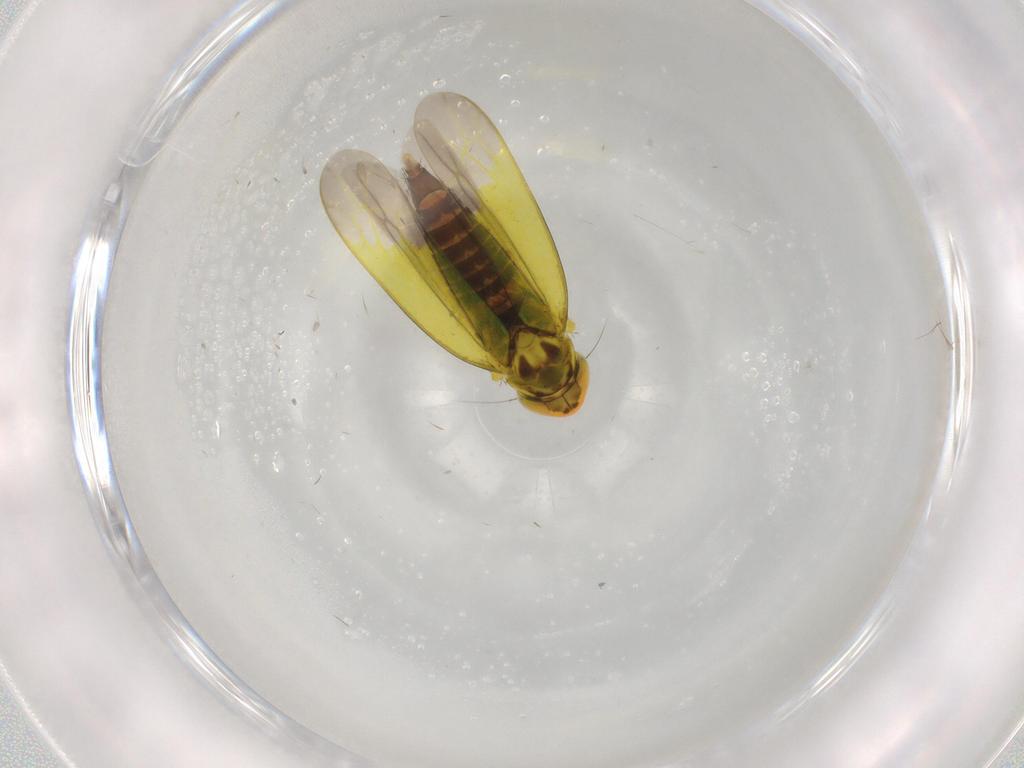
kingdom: Animalia
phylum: Arthropoda
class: Insecta
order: Hemiptera
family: Cicadellidae
